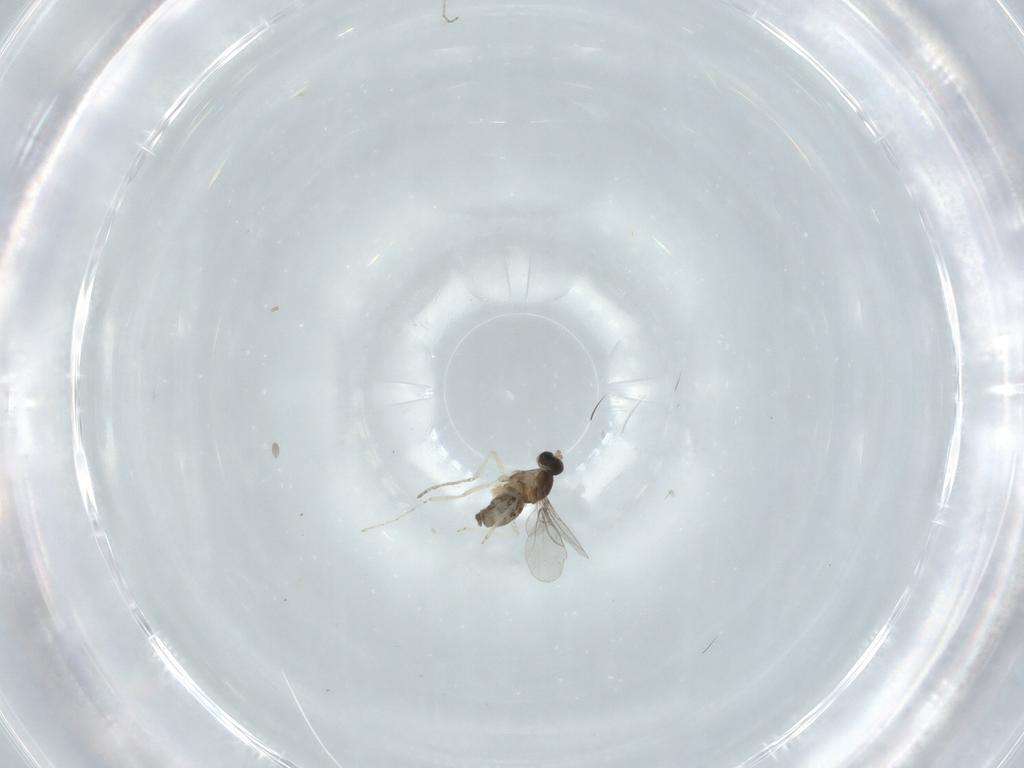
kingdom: Animalia
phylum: Arthropoda
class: Insecta
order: Diptera
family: Cecidomyiidae
